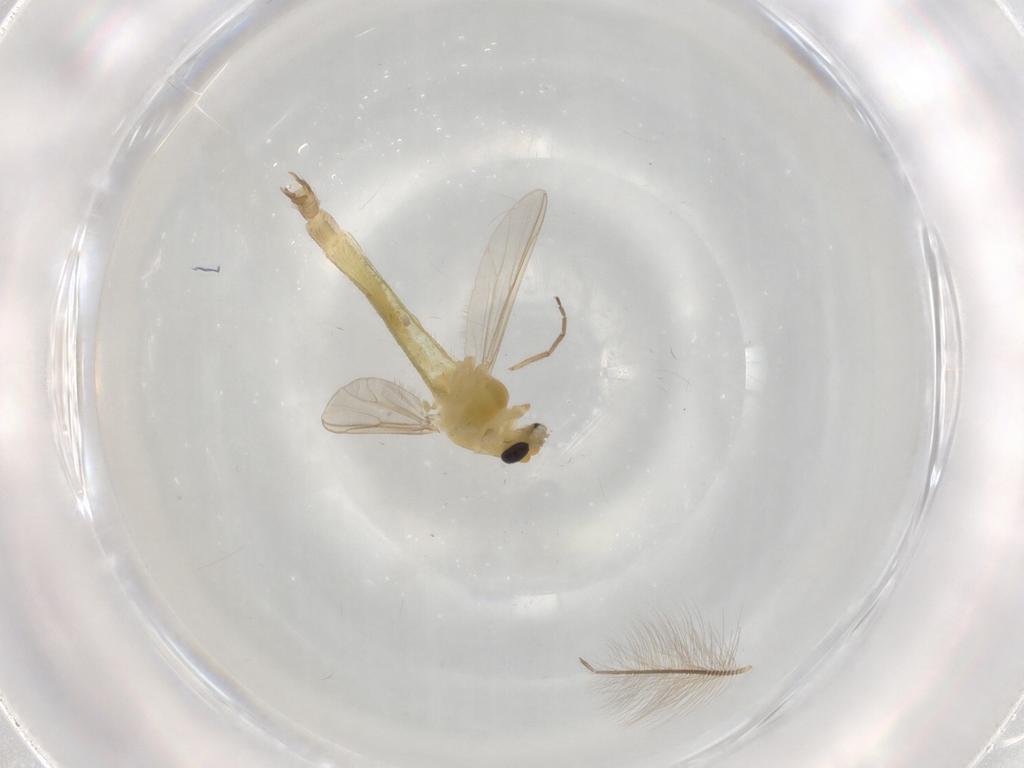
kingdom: Animalia
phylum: Arthropoda
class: Insecta
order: Diptera
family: Chironomidae
